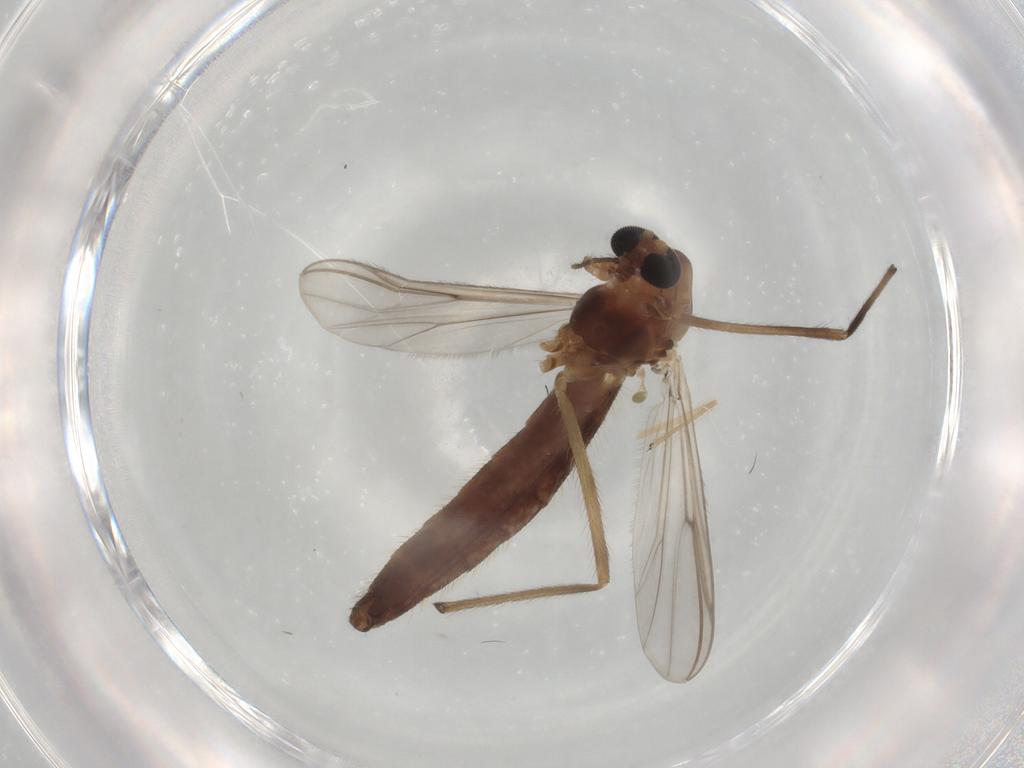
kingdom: Animalia
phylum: Arthropoda
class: Insecta
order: Diptera
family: Chironomidae
